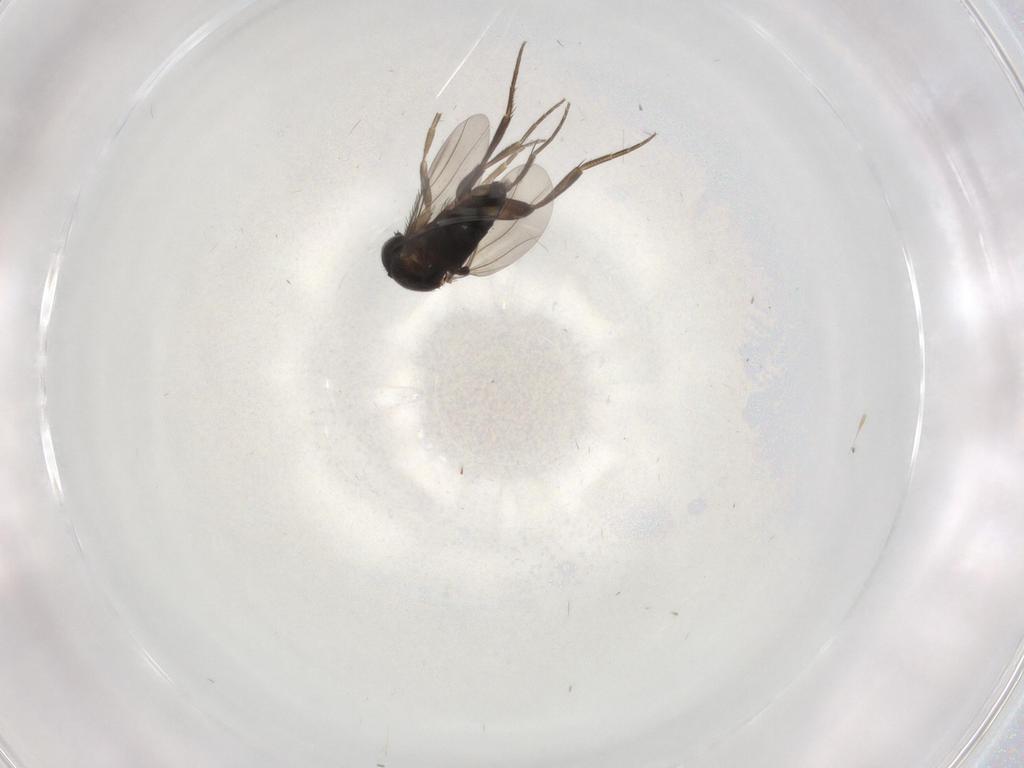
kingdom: Animalia
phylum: Arthropoda
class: Insecta
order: Diptera
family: Phoridae
